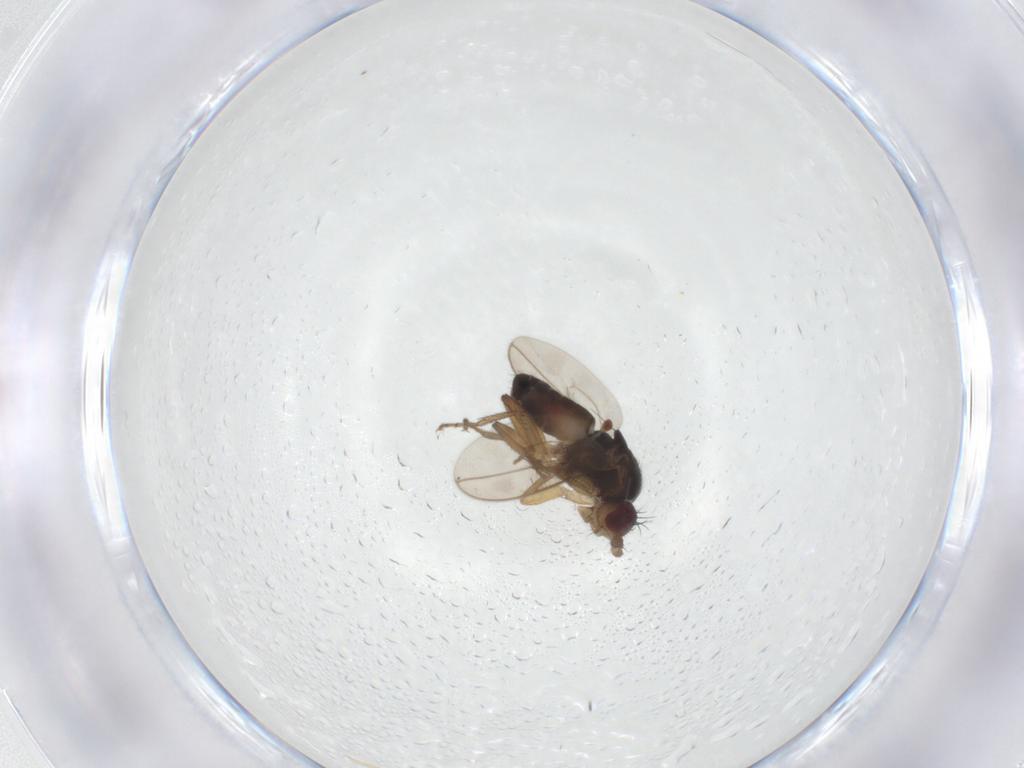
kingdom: Animalia
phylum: Arthropoda
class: Insecta
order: Diptera
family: Sphaeroceridae
